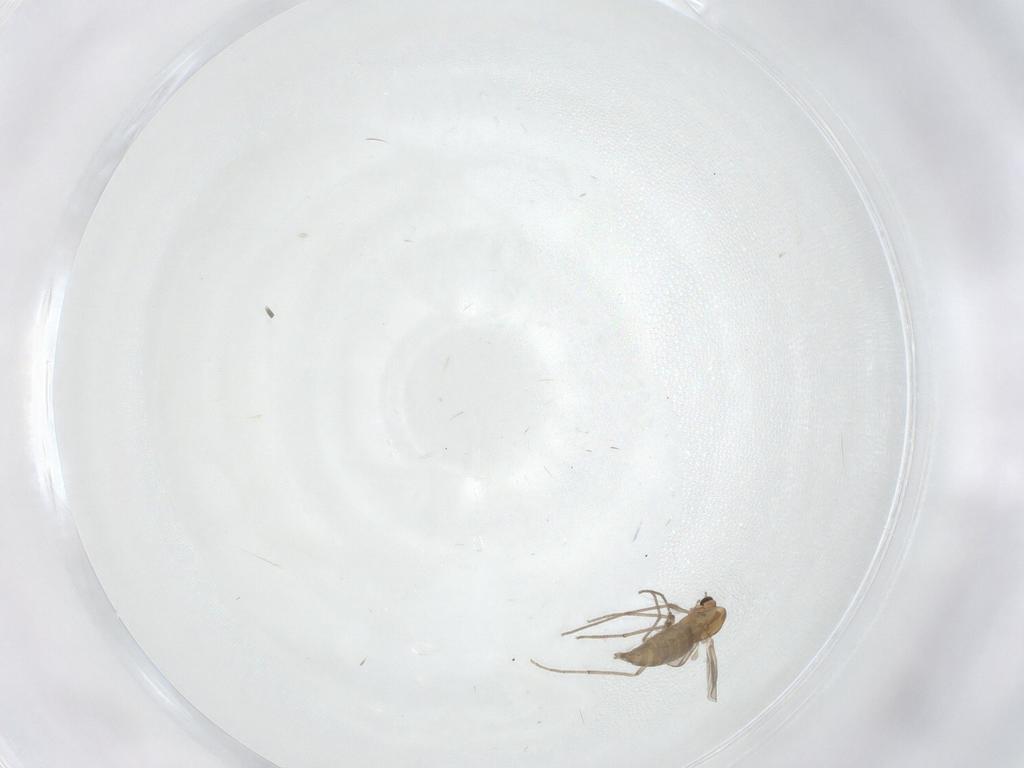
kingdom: Animalia
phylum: Arthropoda
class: Insecta
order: Diptera
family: Chironomidae
